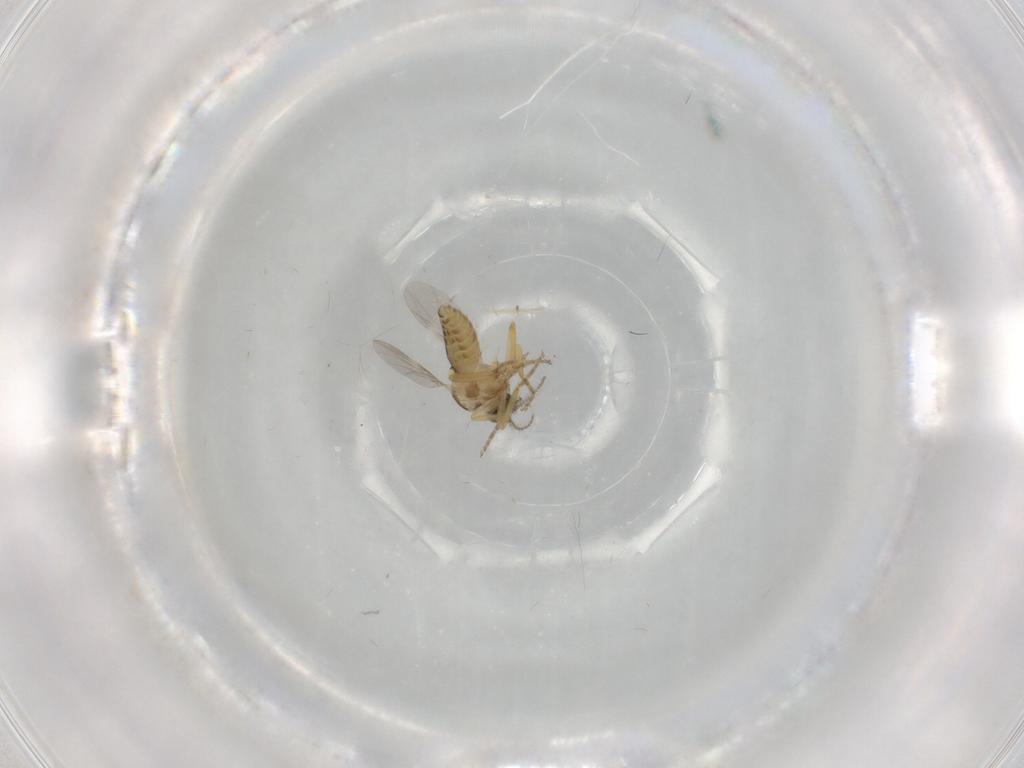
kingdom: Animalia
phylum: Arthropoda
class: Insecta
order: Diptera
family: Ceratopogonidae
